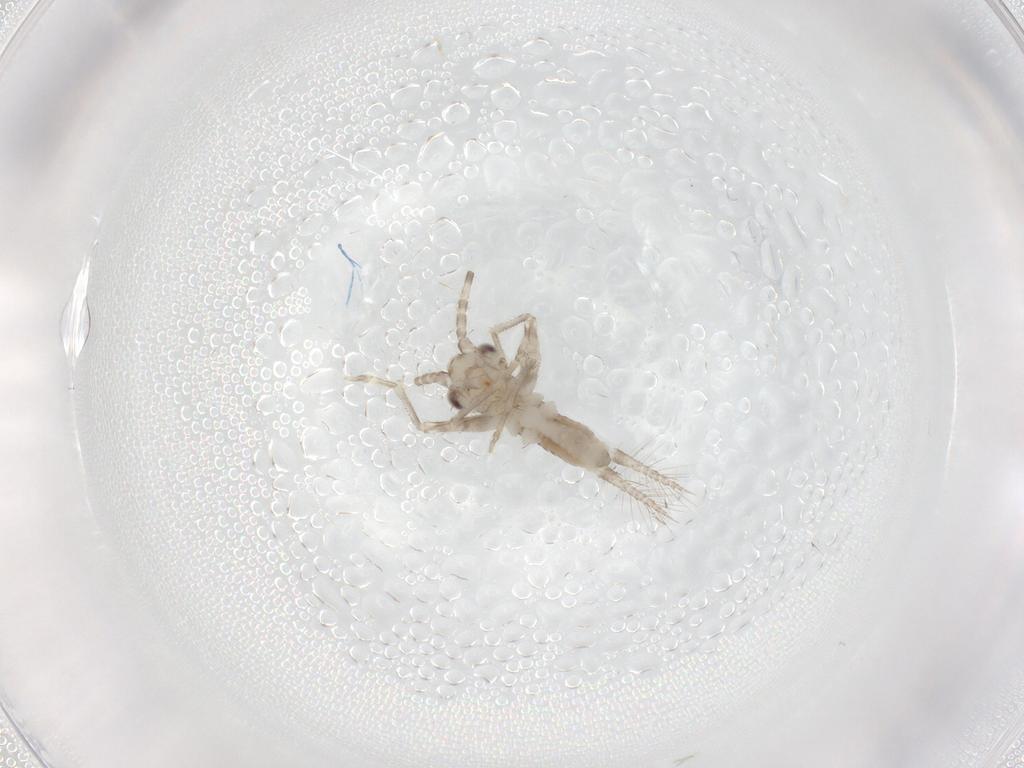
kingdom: Animalia
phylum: Arthropoda
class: Insecta
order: Orthoptera
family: Trigonidiidae
